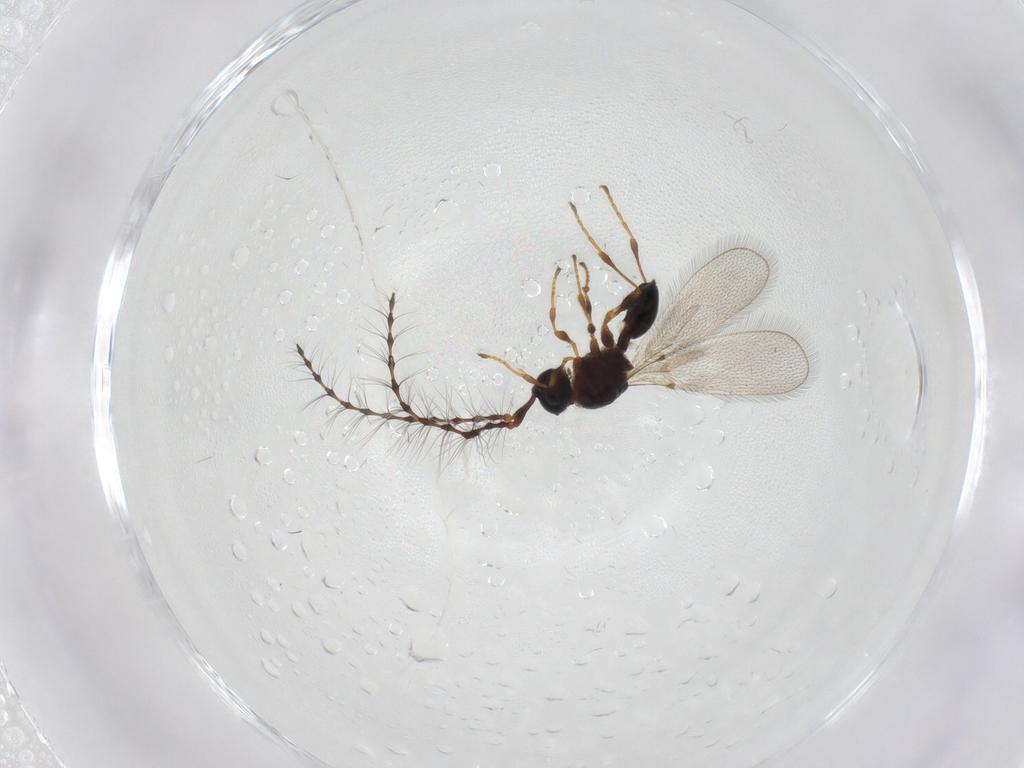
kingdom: Animalia
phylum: Arthropoda
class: Insecta
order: Hymenoptera
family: Diapriidae
